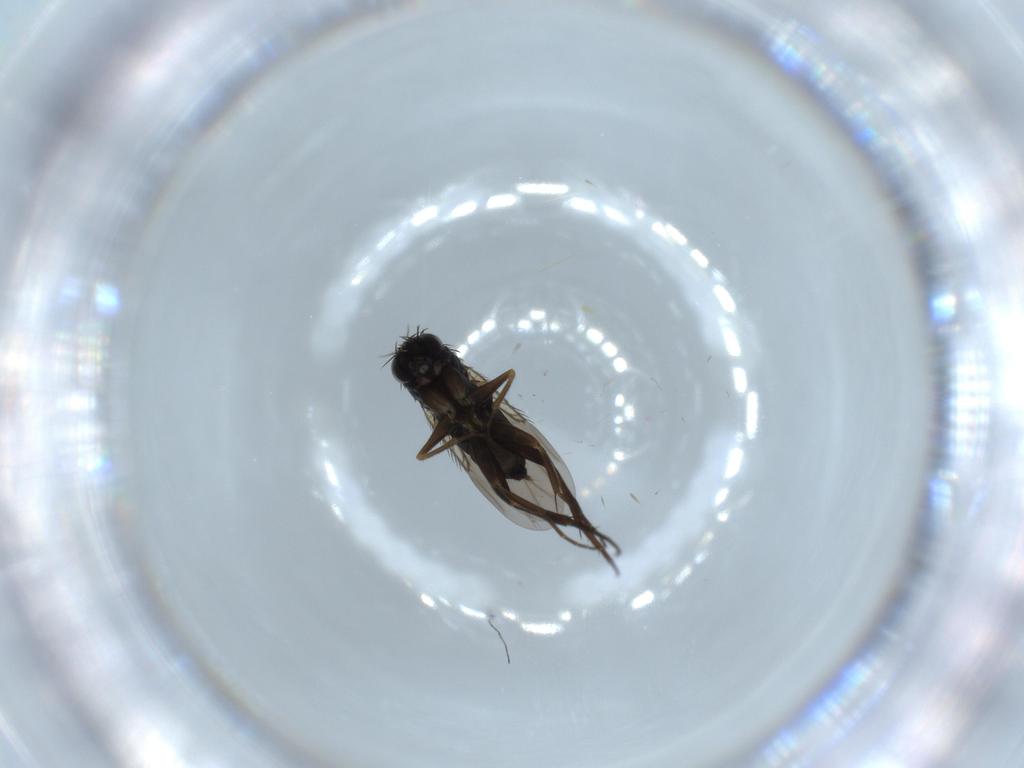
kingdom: Animalia
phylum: Arthropoda
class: Insecta
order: Diptera
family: Phoridae
